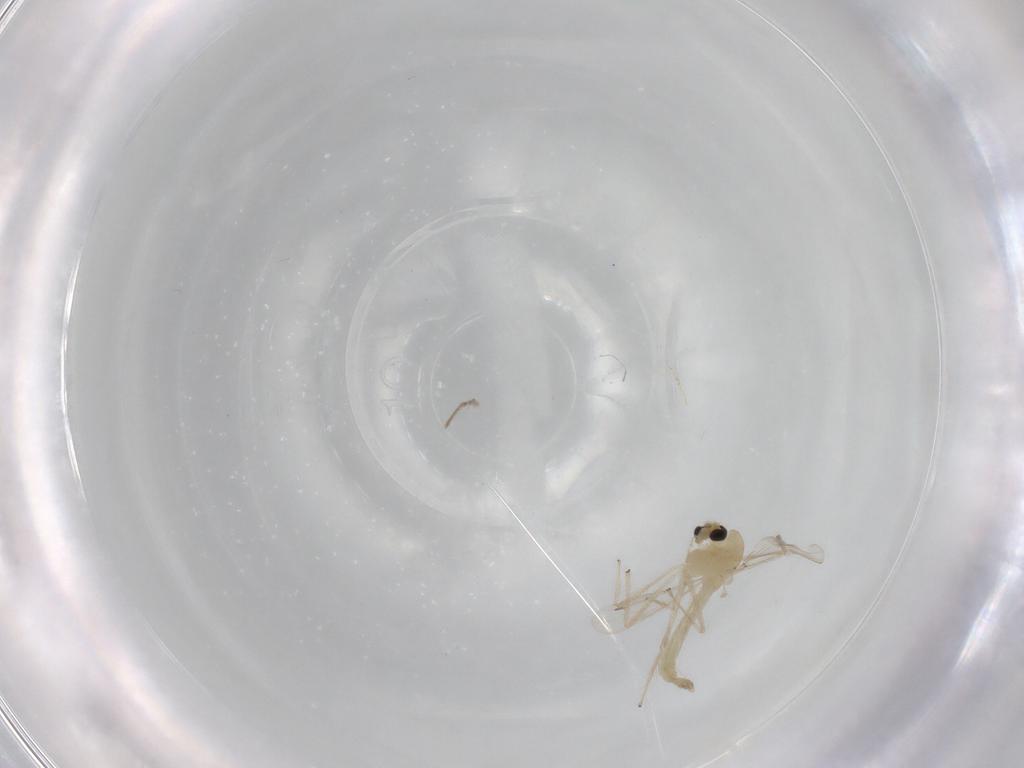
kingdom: Animalia
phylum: Arthropoda
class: Insecta
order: Diptera
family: Chironomidae
